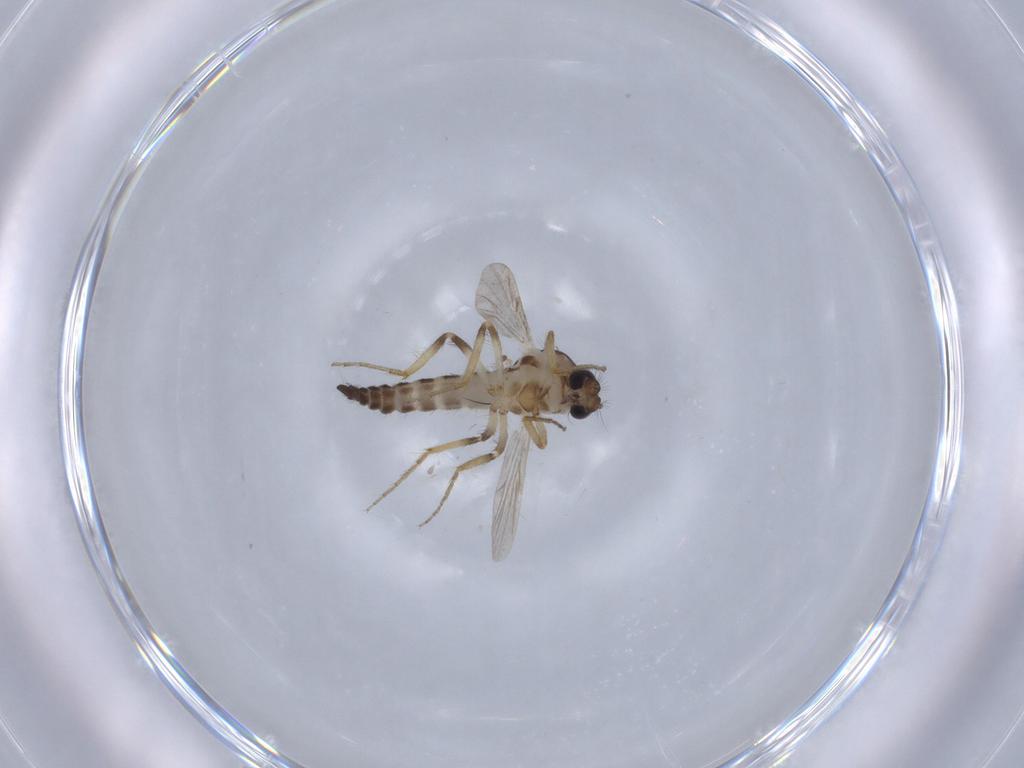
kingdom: Animalia
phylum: Arthropoda
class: Insecta
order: Diptera
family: Ceratopogonidae
